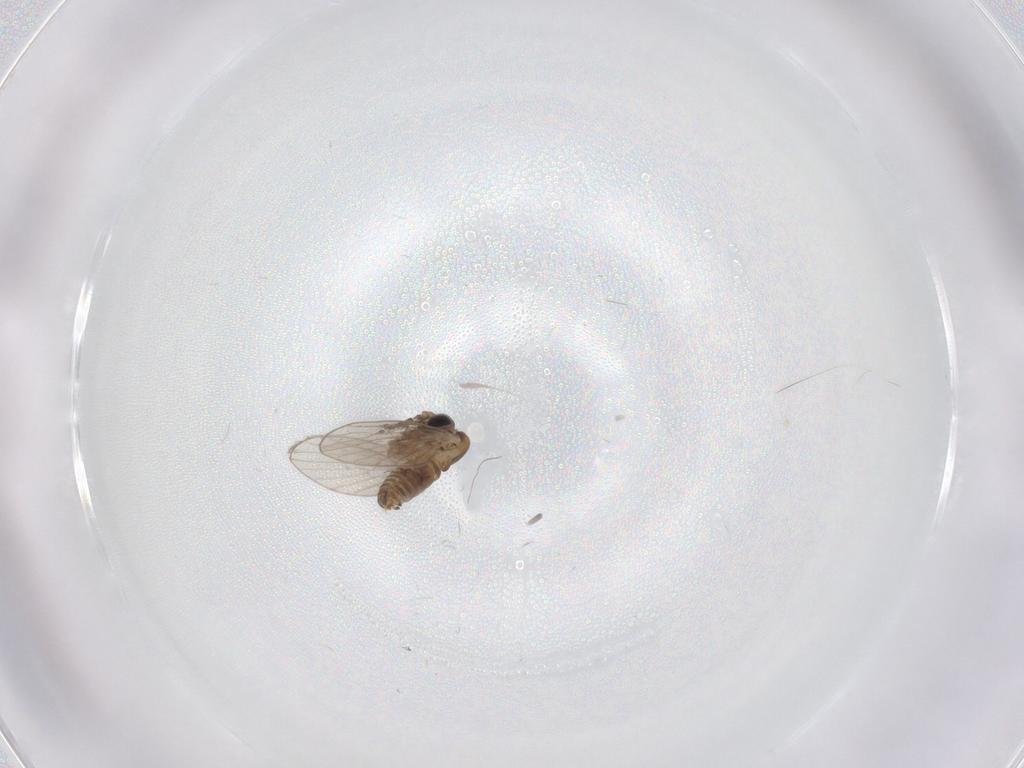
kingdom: Animalia
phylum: Arthropoda
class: Insecta
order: Diptera
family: Psychodidae
